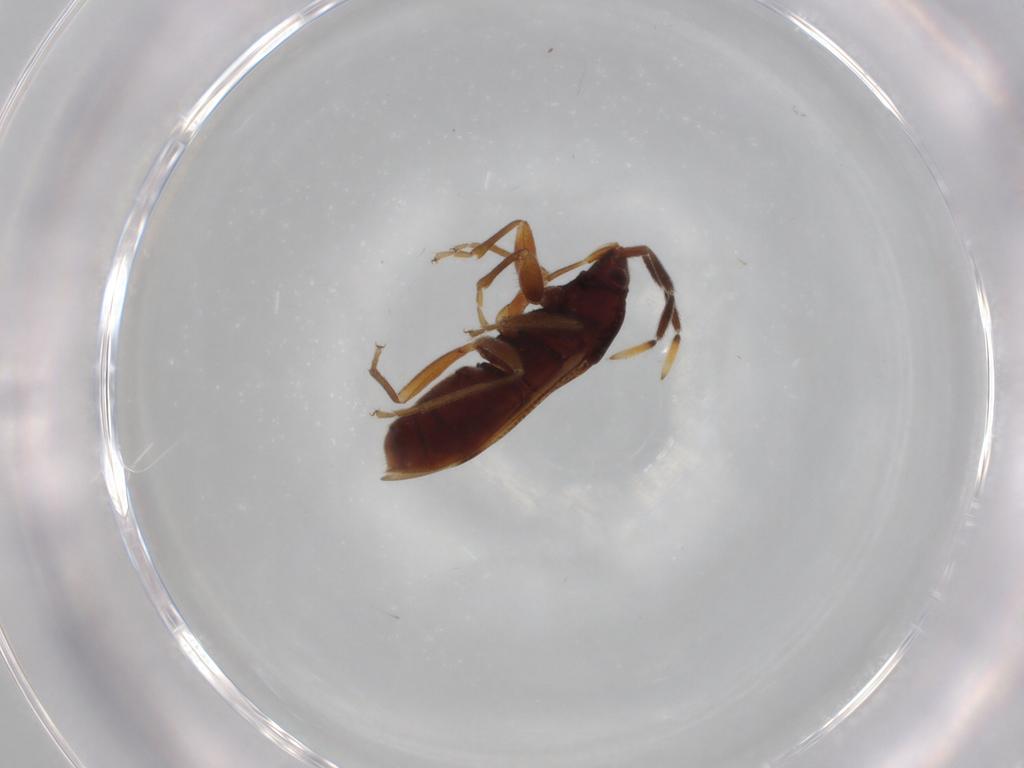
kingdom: Animalia
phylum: Arthropoda
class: Insecta
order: Hemiptera
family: Rhyparochromidae
